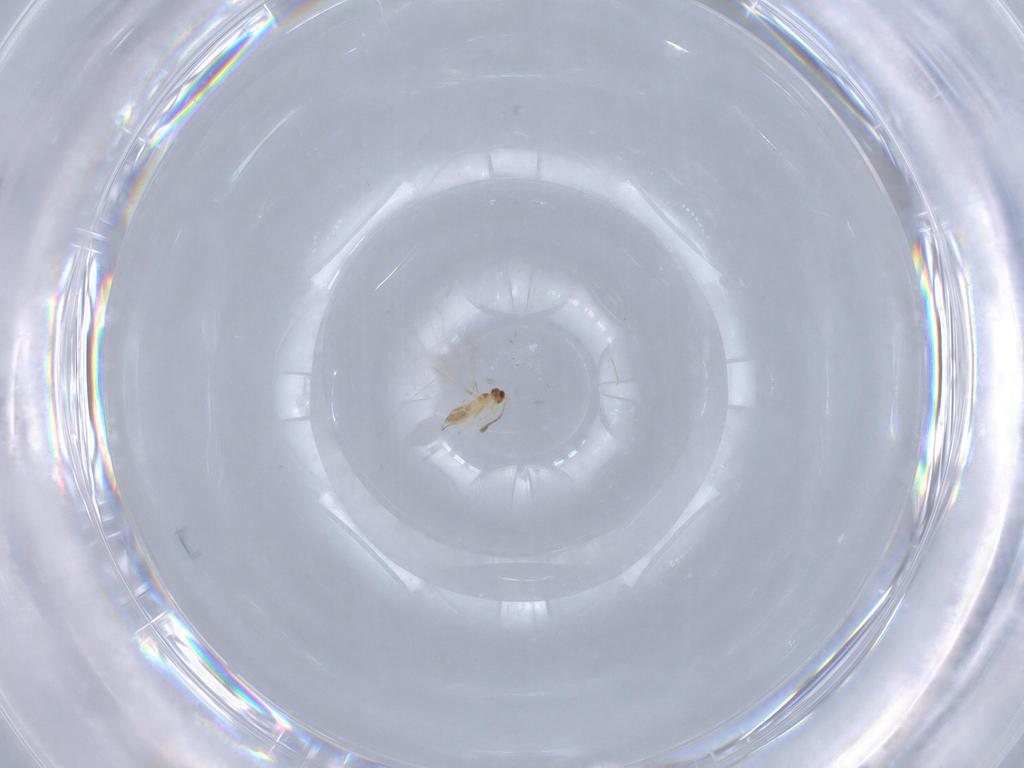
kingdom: Animalia
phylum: Arthropoda
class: Insecta
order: Hymenoptera
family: Mymaridae
